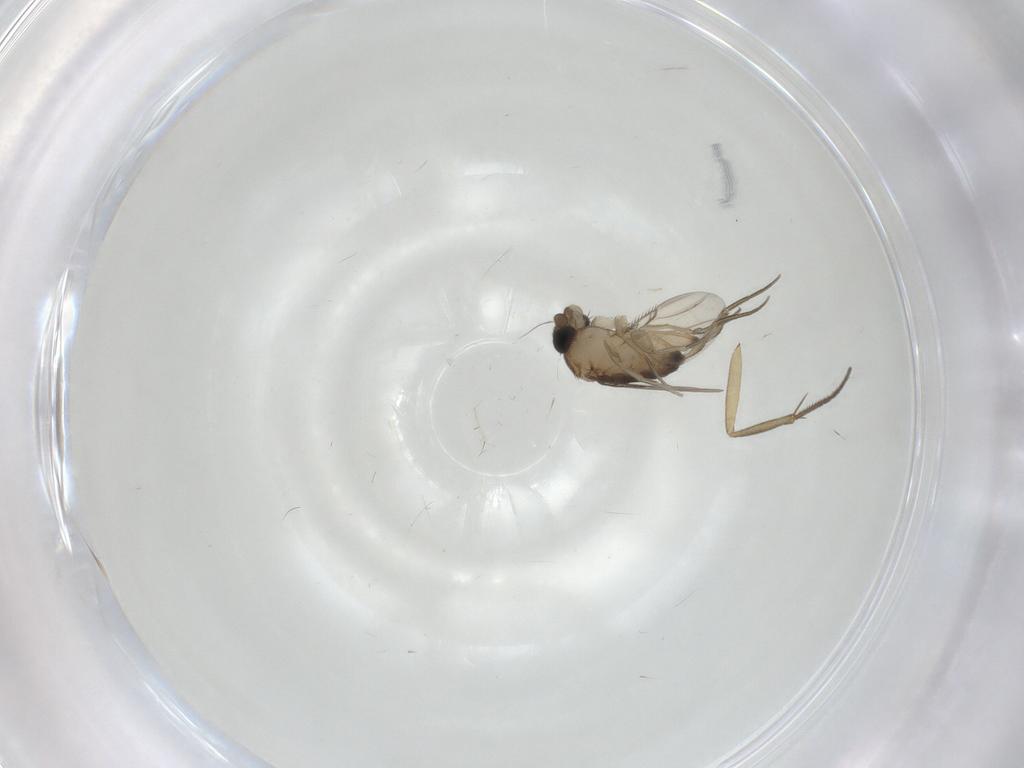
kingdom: Animalia
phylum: Arthropoda
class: Insecta
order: Diptera
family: Phoridae
